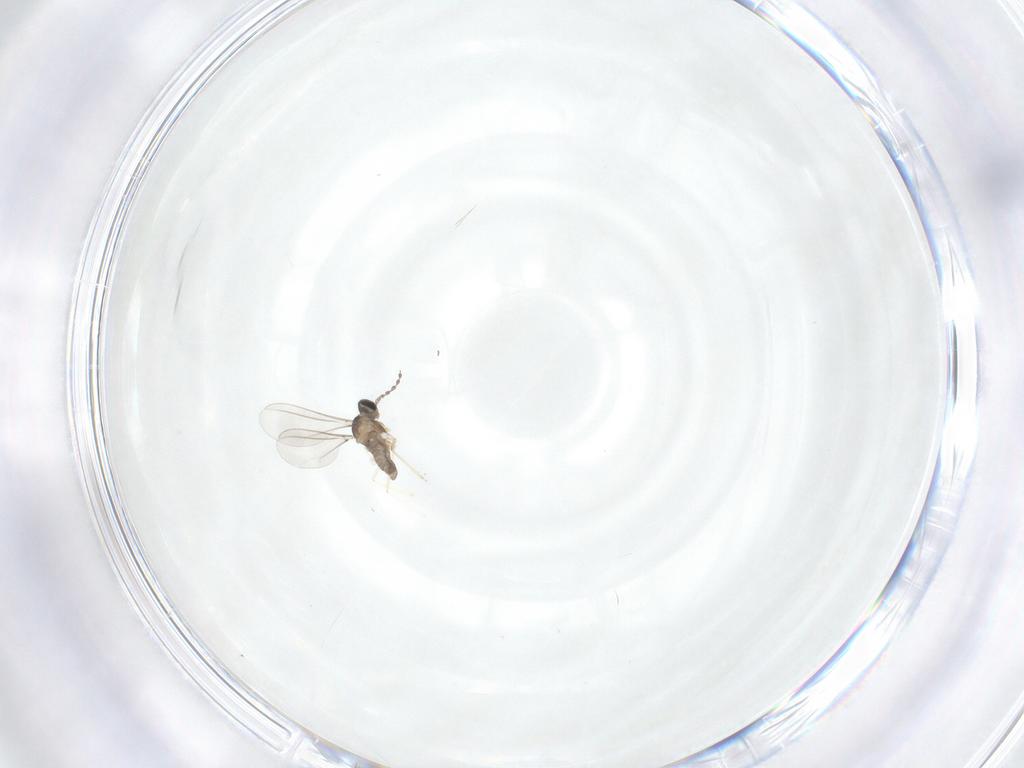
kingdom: Animalia
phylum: Arthropoda
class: Insecta
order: Diptera
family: Cecidomyiidae
